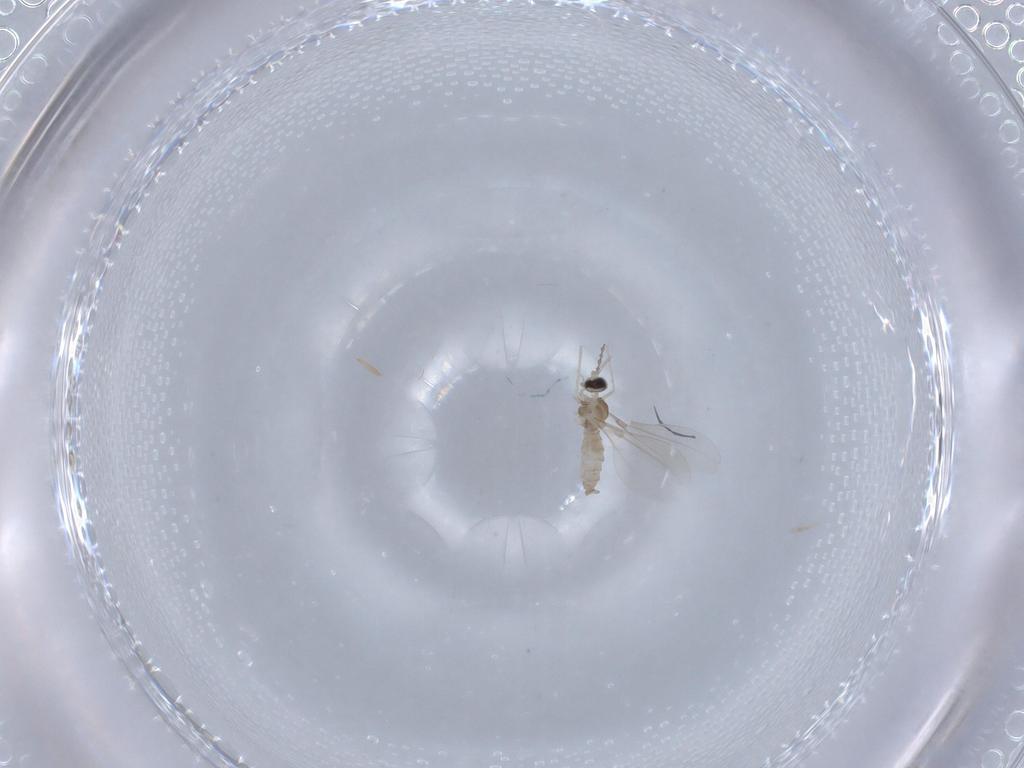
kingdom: Animalia
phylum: Arthropoda
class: Insecta
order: Diptera
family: Cecidomyiidae
